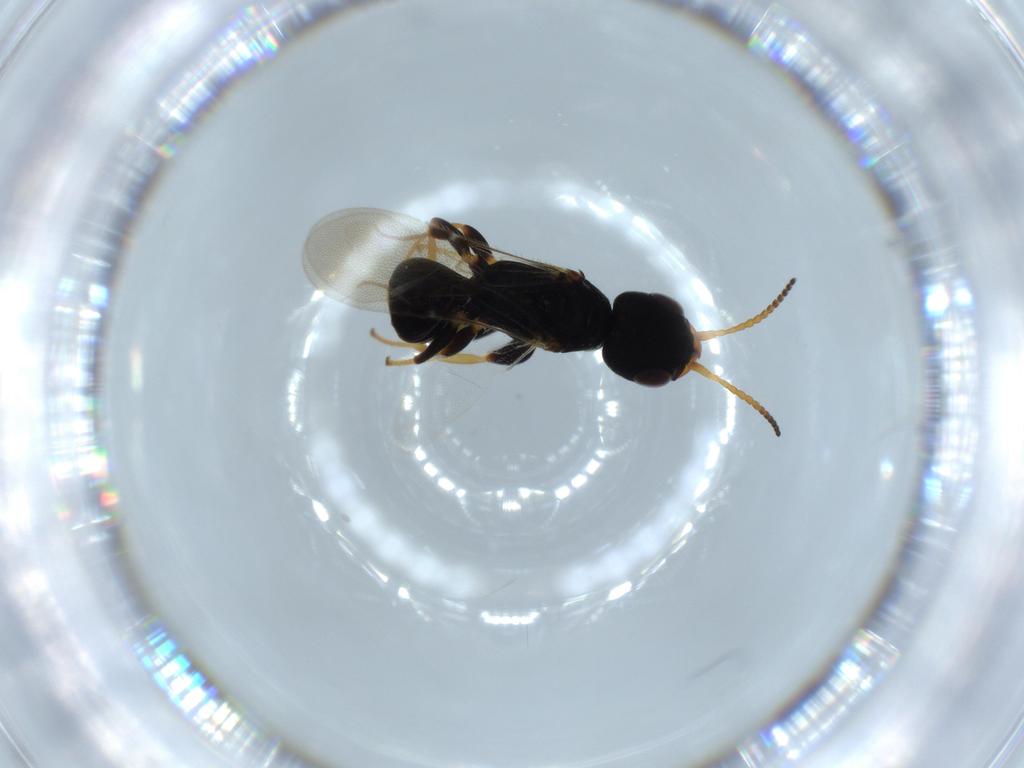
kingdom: Animalia
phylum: Arthropoda
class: Insecta
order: Hymenoptera
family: Bethylidae
